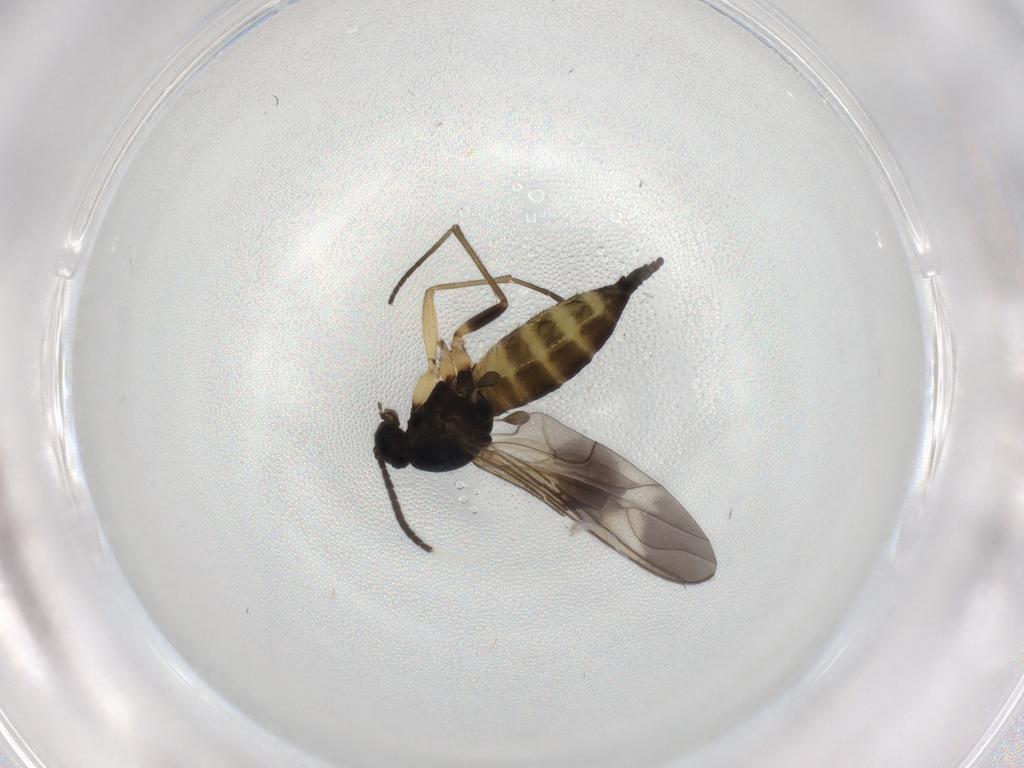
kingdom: Animalia
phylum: Arthropoda
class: Insecta
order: Diptera
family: Sciaridae
